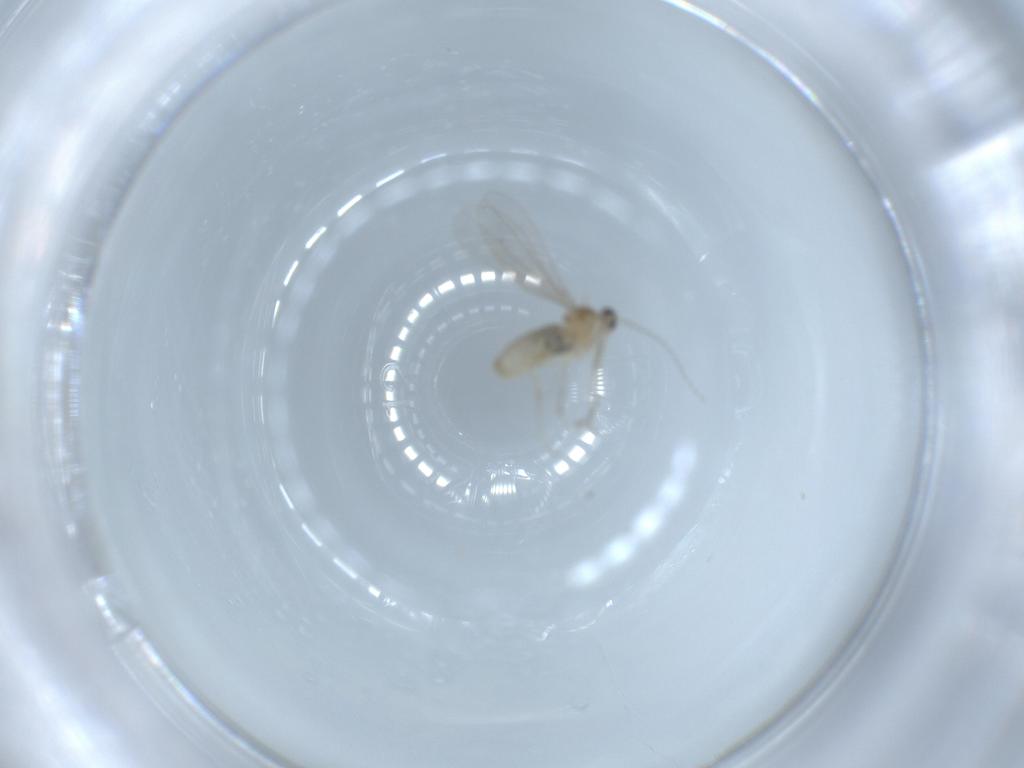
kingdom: Animalia
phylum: Arthropoda
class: Insecta
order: Diptera
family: Cecidomyiidae
